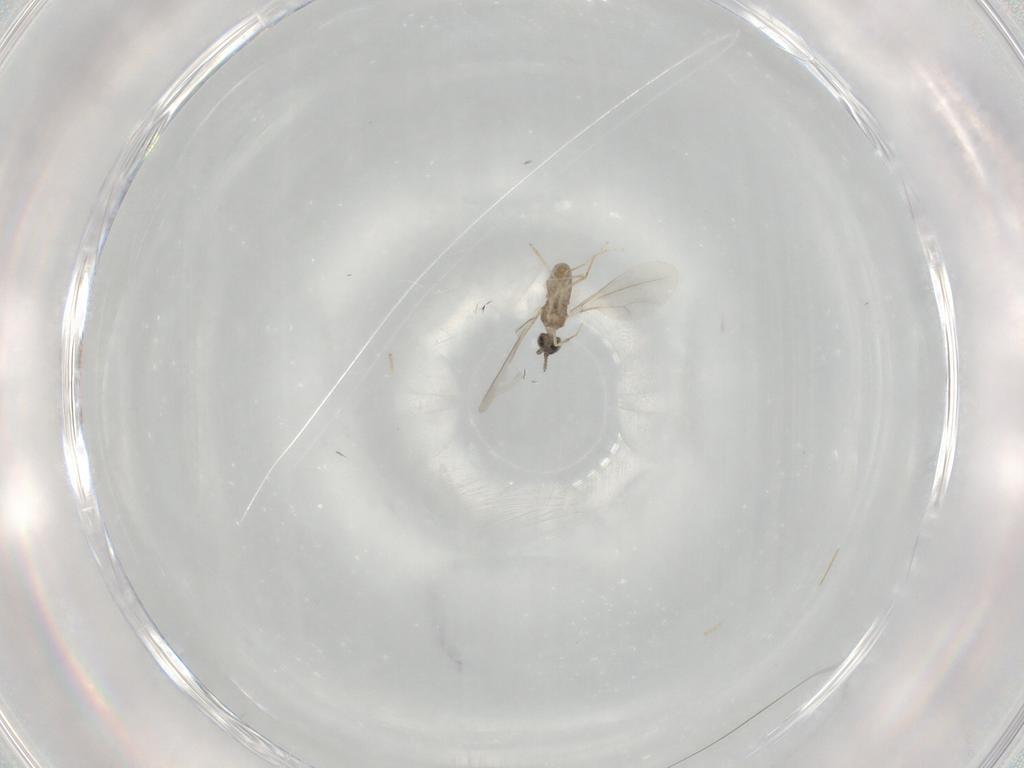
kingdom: Animalia
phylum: Arthropoda
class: Insecta
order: Diptera
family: Cecidomyiidae
